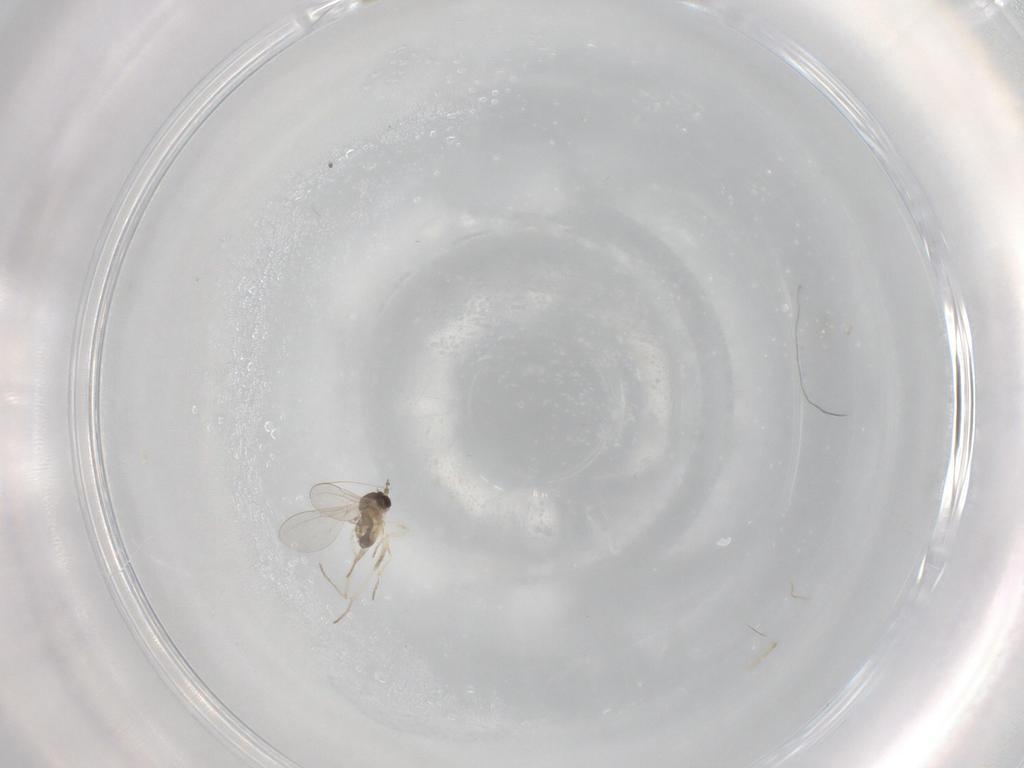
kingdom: Animalia
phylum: Arthropoda
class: Insecta
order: Diptera
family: Cecidomyiidae
